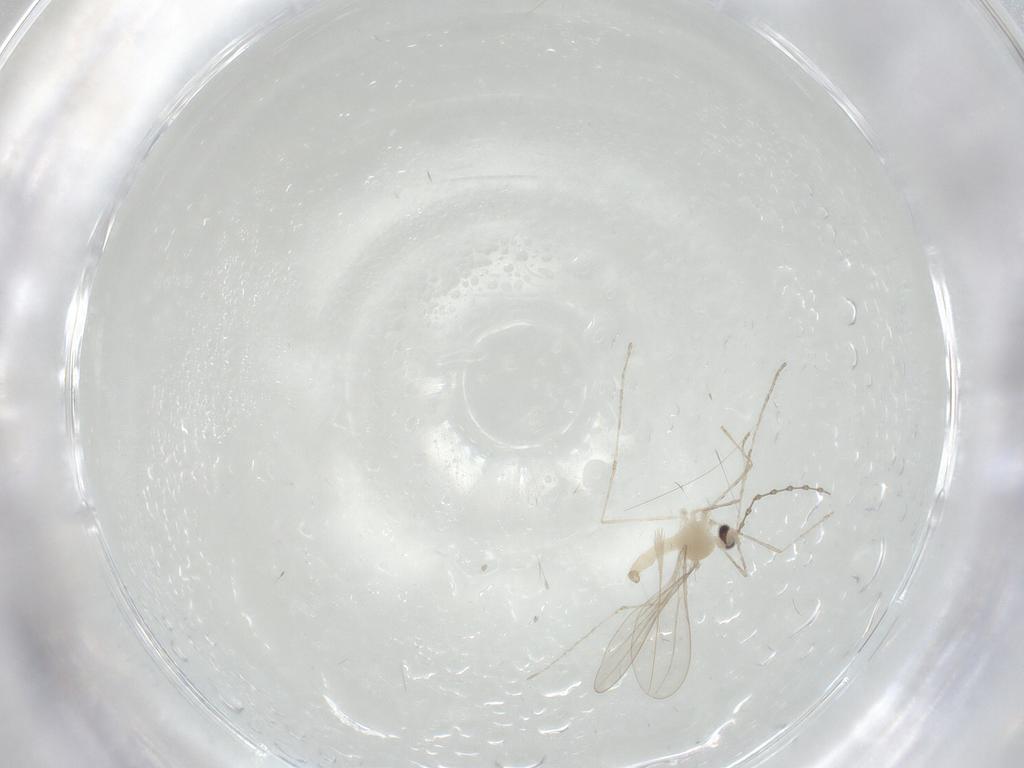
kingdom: Animalia
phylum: Arthropoda
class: Insecta
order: Diptera
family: Cecidomyiidae
